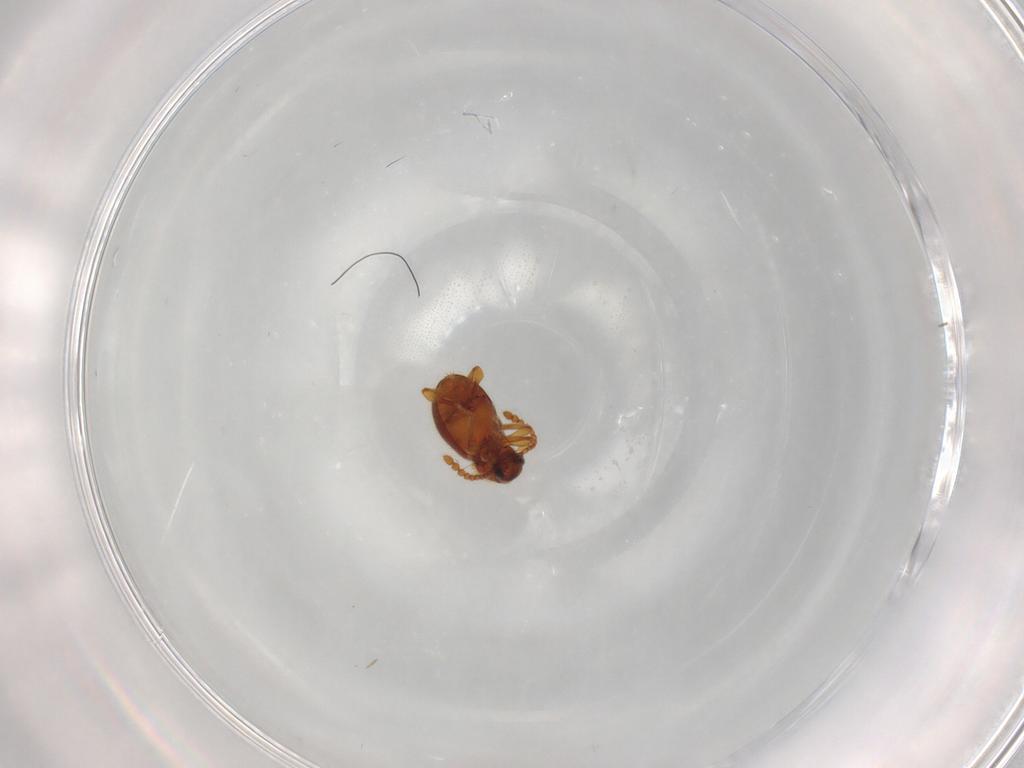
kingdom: Animalia
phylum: Arthropoda
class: Insecta
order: Coleoptera
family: Staphylinidae
